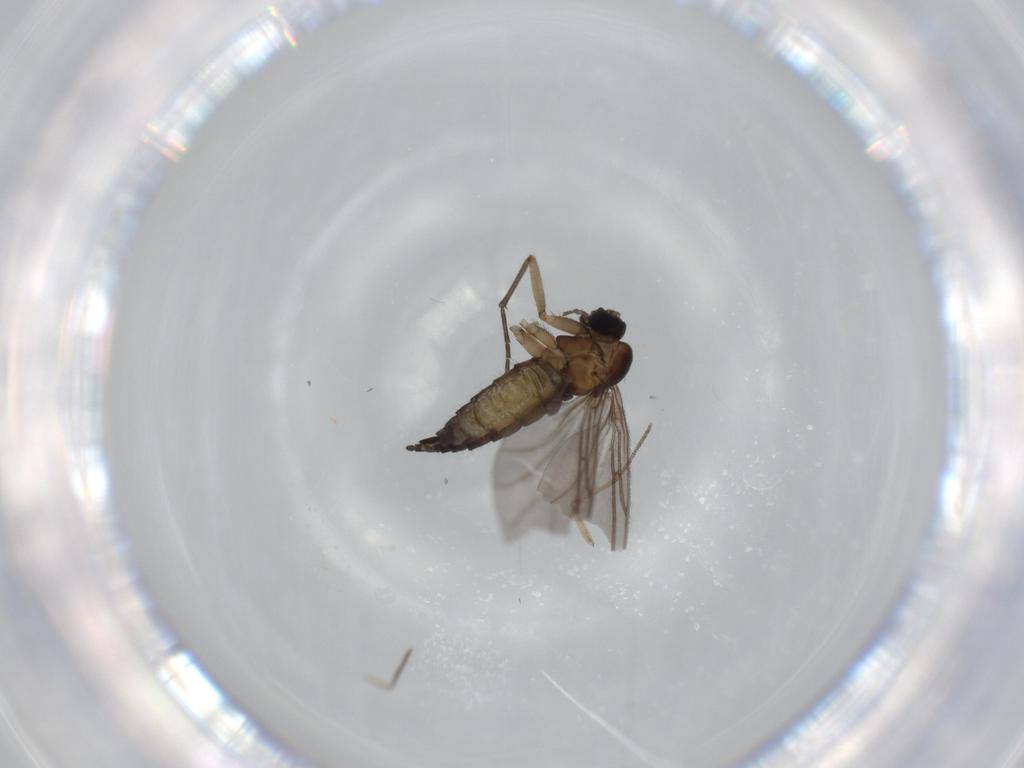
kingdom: Animalia
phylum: Arthropoda
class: Insecta
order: Diptera
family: Sciaridae
